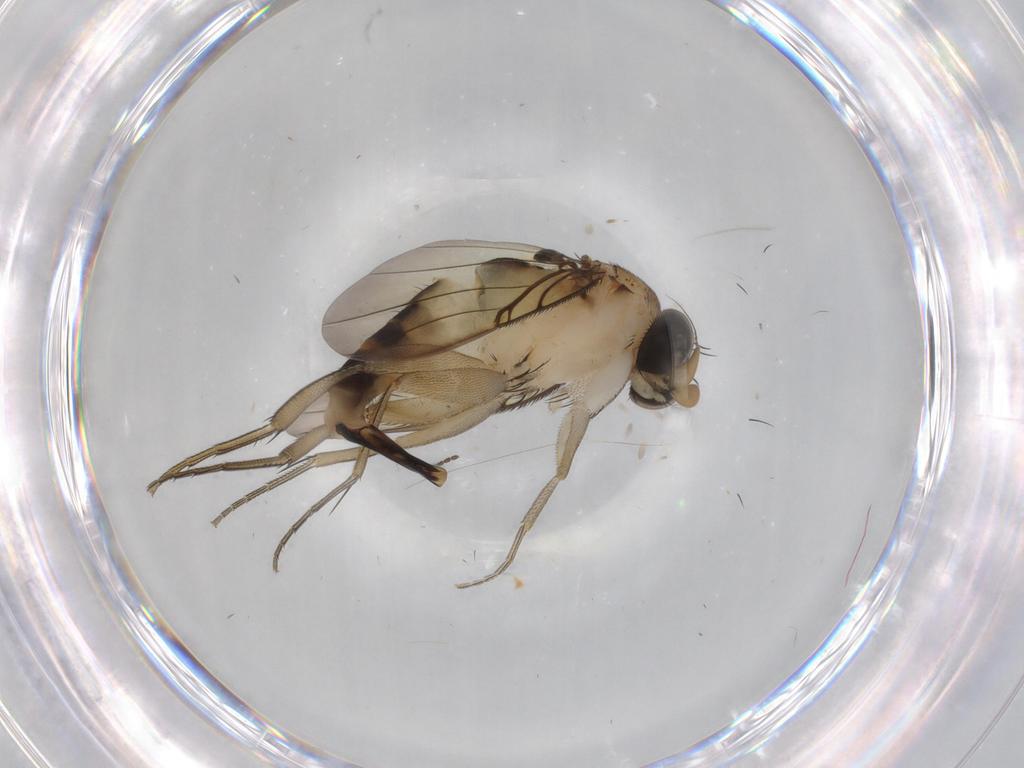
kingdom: Animalia
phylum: Arthropoda
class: Insecta
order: Diptera
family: Phoridae
